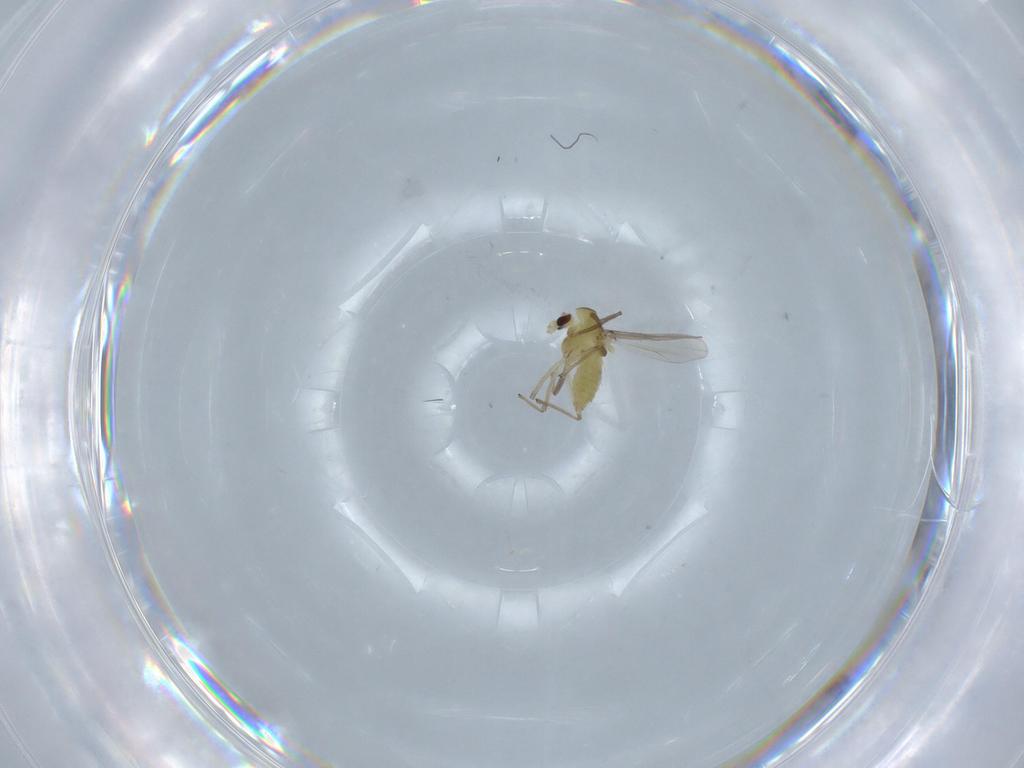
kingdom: Animalia
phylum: Arthropoda
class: Insecta
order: Diptera
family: Chironomidae
